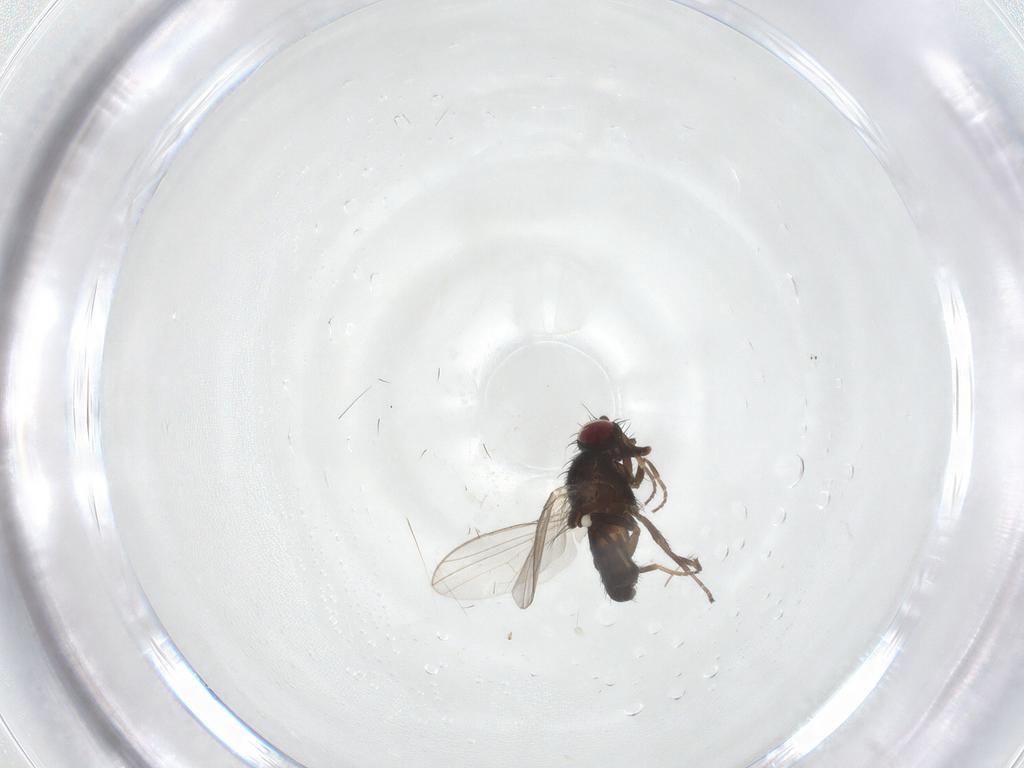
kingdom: Animalia
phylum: Arthropoda
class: Insecta
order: Diptera
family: Carnidae
